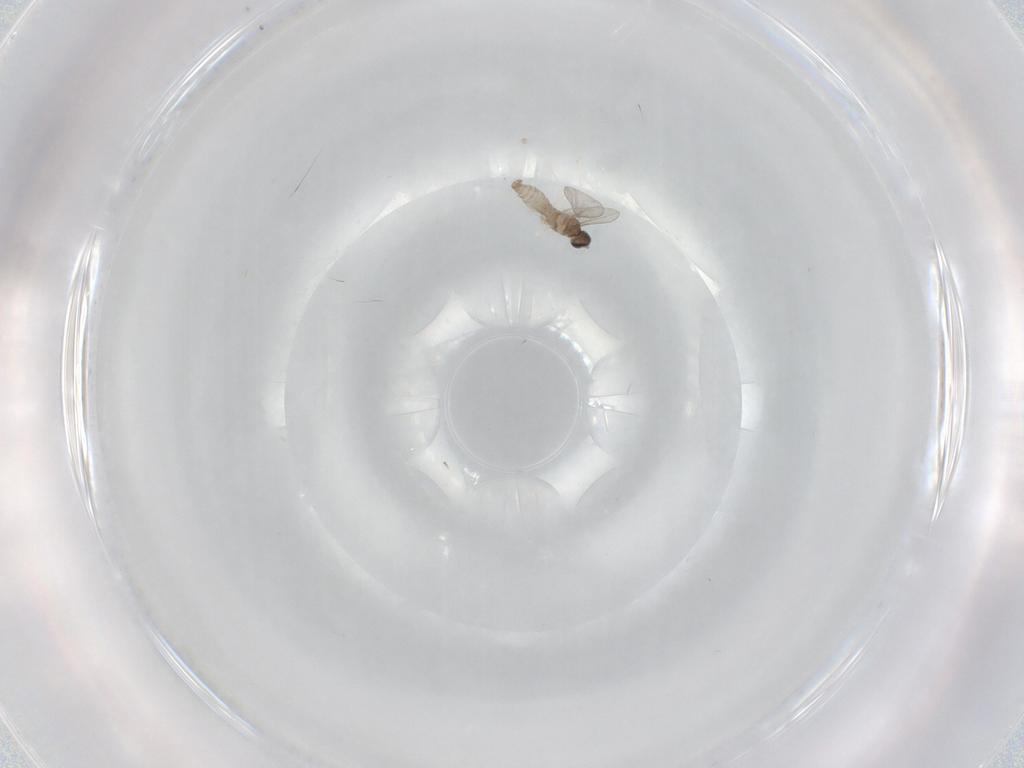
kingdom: Animalia
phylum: Arthropoda
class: Insecta
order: Diptera
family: Cecidomyiidae
